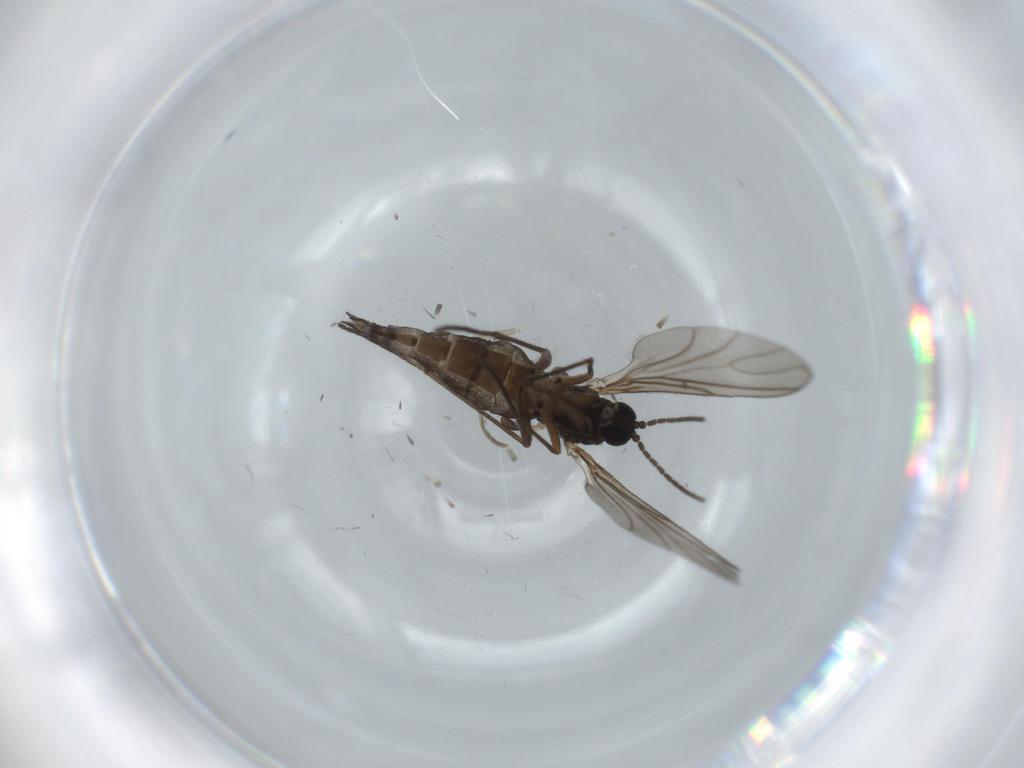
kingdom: Animalia
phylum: Arthropoda
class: Insecta
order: Diptera
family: Sciaridae
